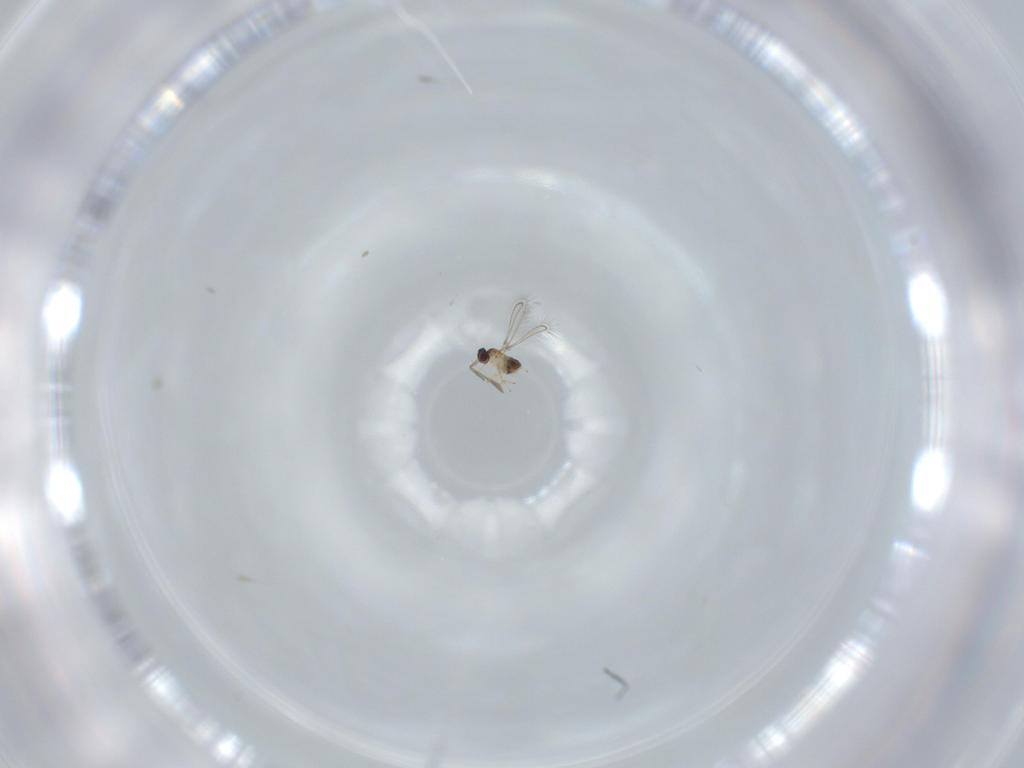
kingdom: Animalia
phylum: Arthropoda
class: Insecta
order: Hymenoptera
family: Mymaridae
